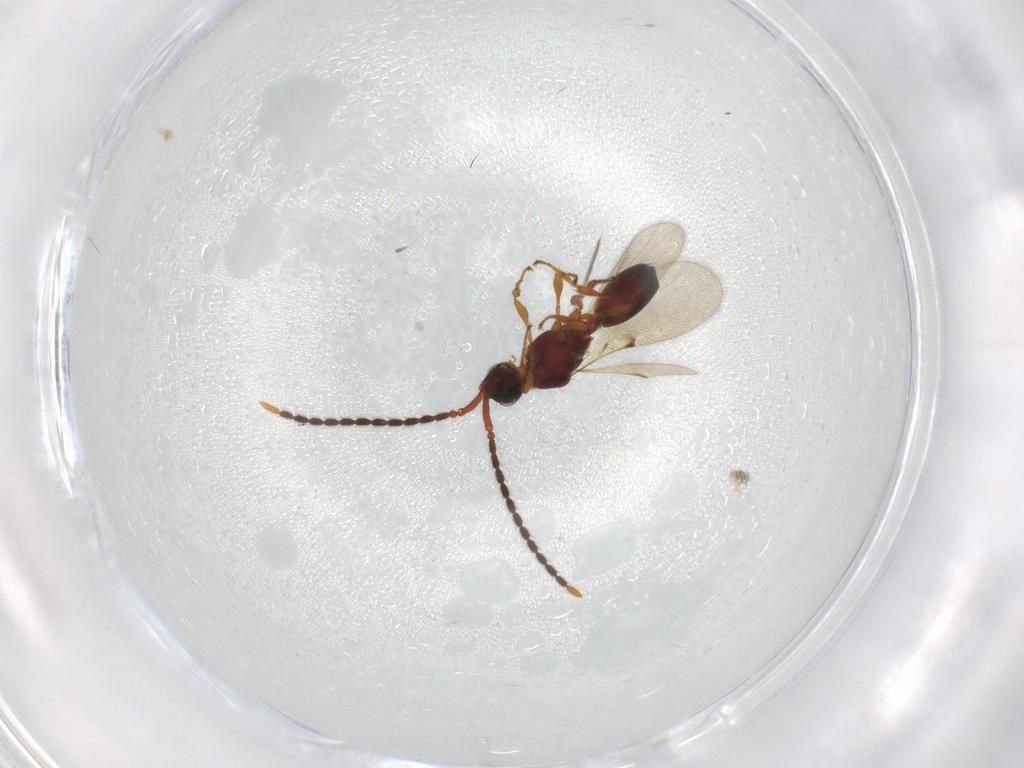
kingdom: Animalia
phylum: Arthropoda
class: Insecta
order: Hymenoptera
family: Diapriidae
